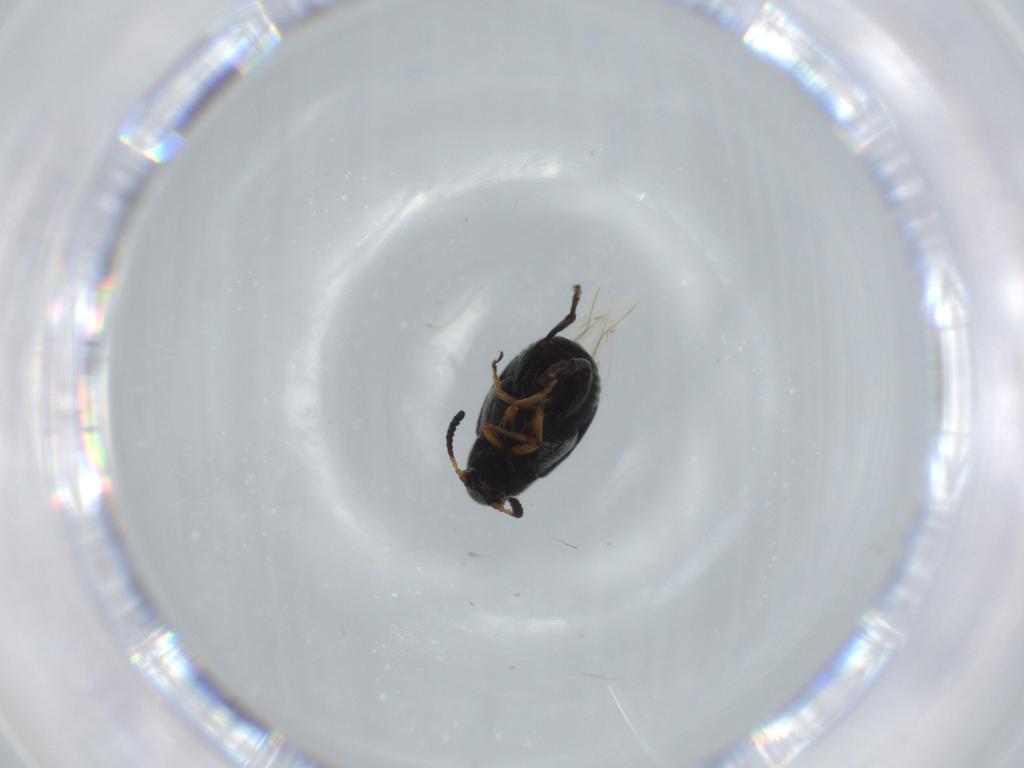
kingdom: Animalia
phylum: Arthropoda
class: Insecta
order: Coleoptera
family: Chrysomelidae
